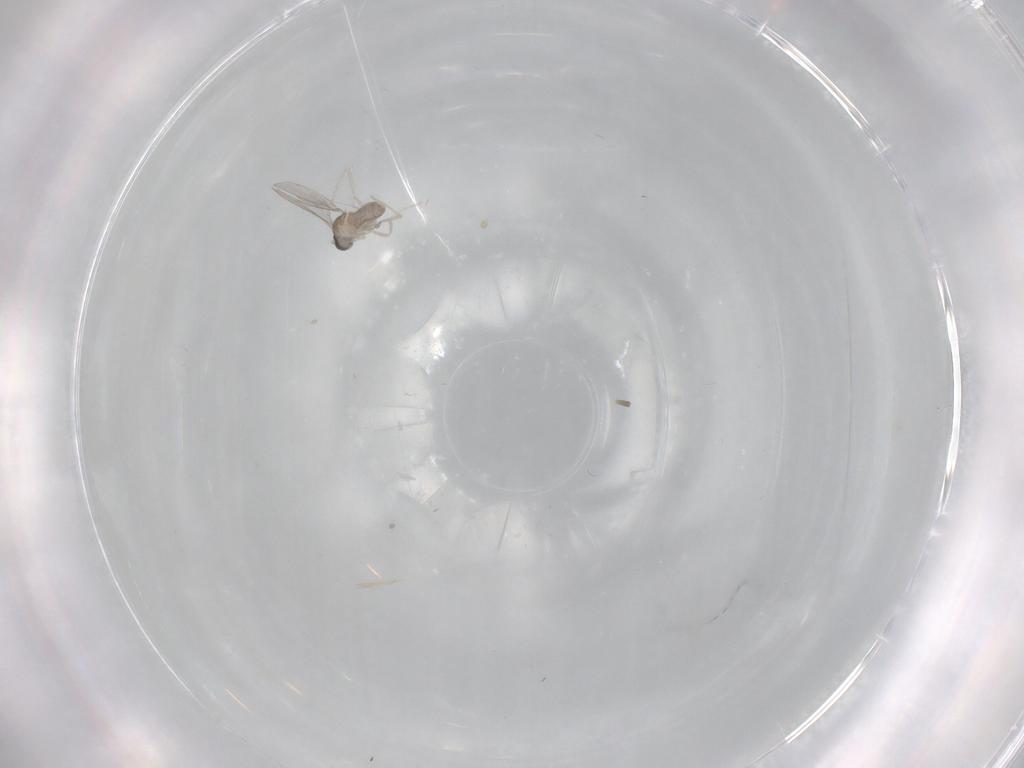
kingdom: Animalia
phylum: Arthropoda
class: Insecta
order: Diptera
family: Cecidomyiidae
